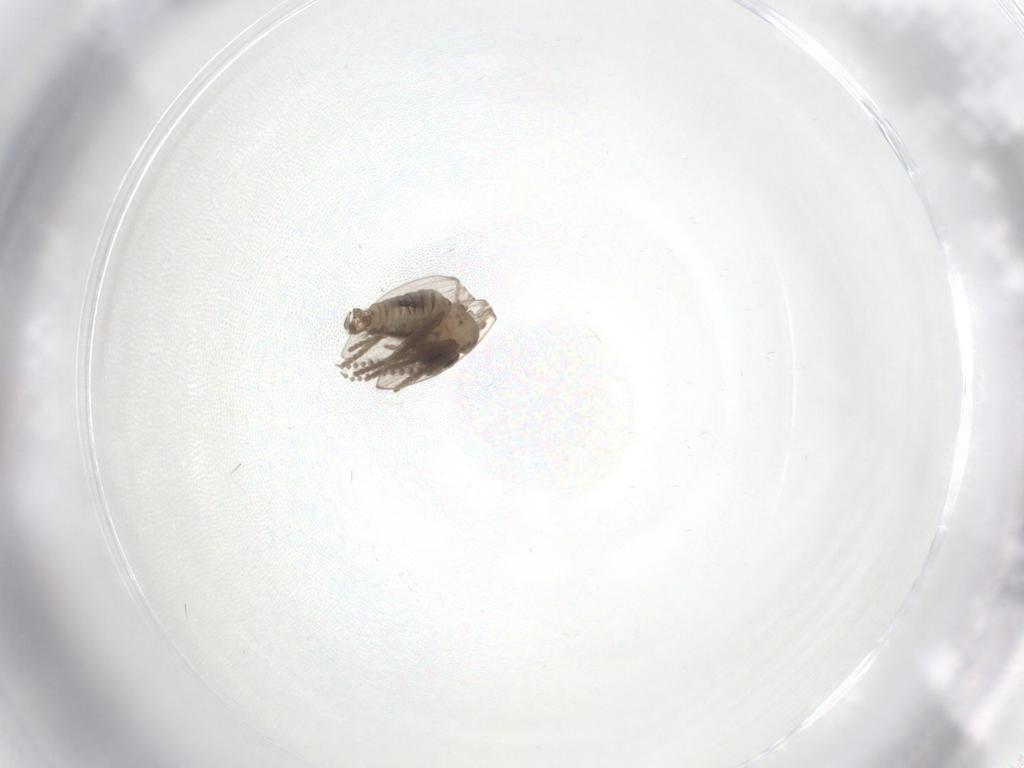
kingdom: Animalia
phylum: Arthropoda
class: Insecta
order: Diptera
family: Psychodidae
